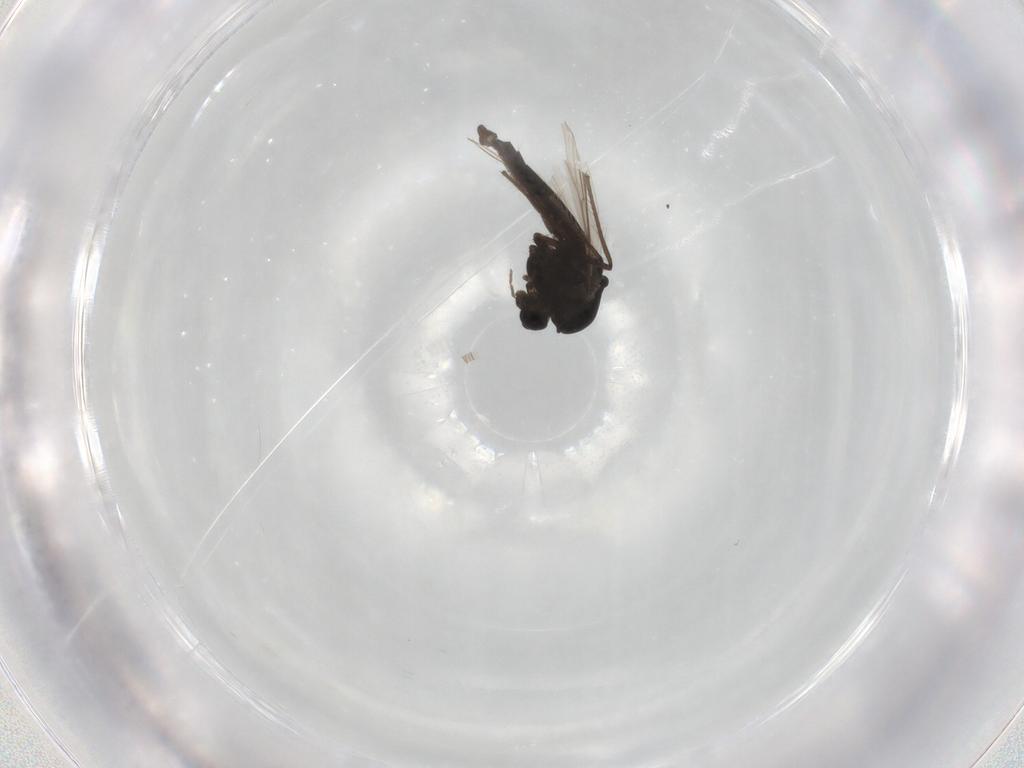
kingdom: Animalia
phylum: Arthropoda
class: Insecta
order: Diptera
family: Chironomidae
